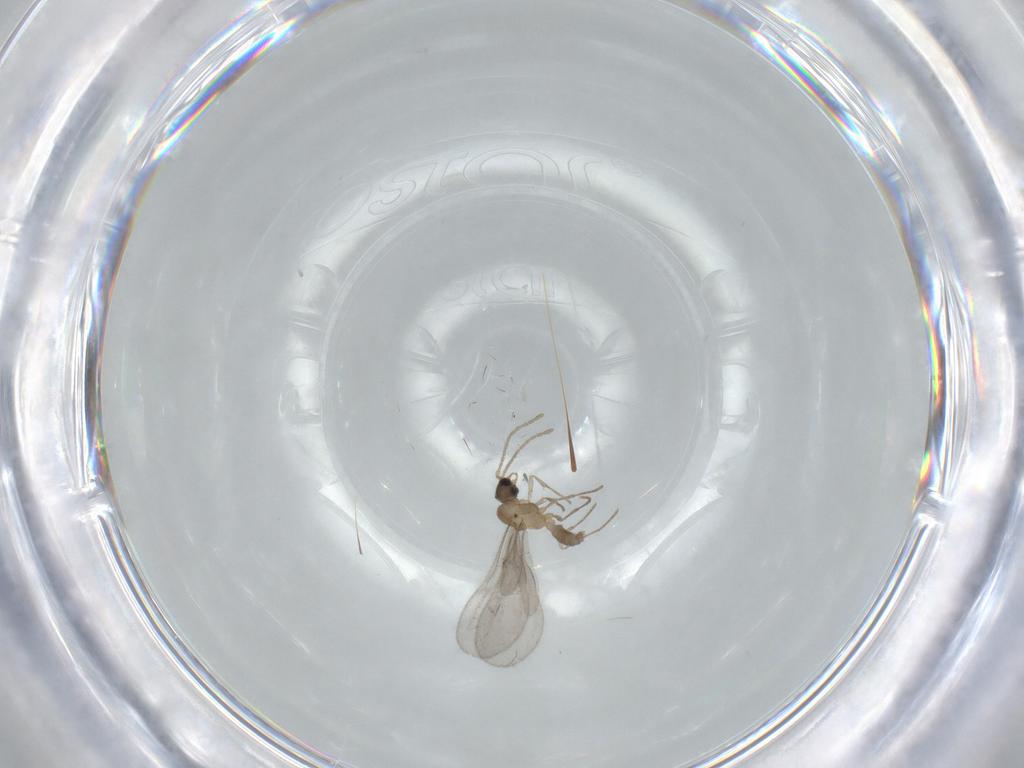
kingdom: Animalia
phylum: Arthropoda
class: Insecta
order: Hymenoptera
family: Formicidae
